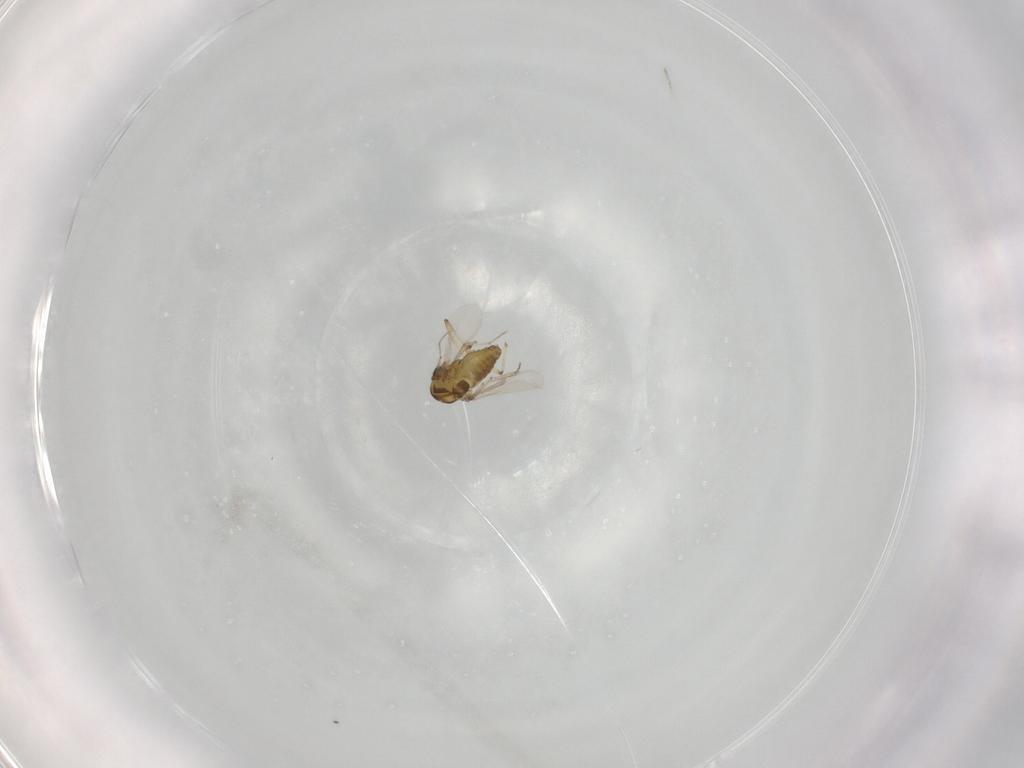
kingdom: Animalia
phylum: Arthropoda
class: Insecta
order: Diptera
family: Chironomidae
